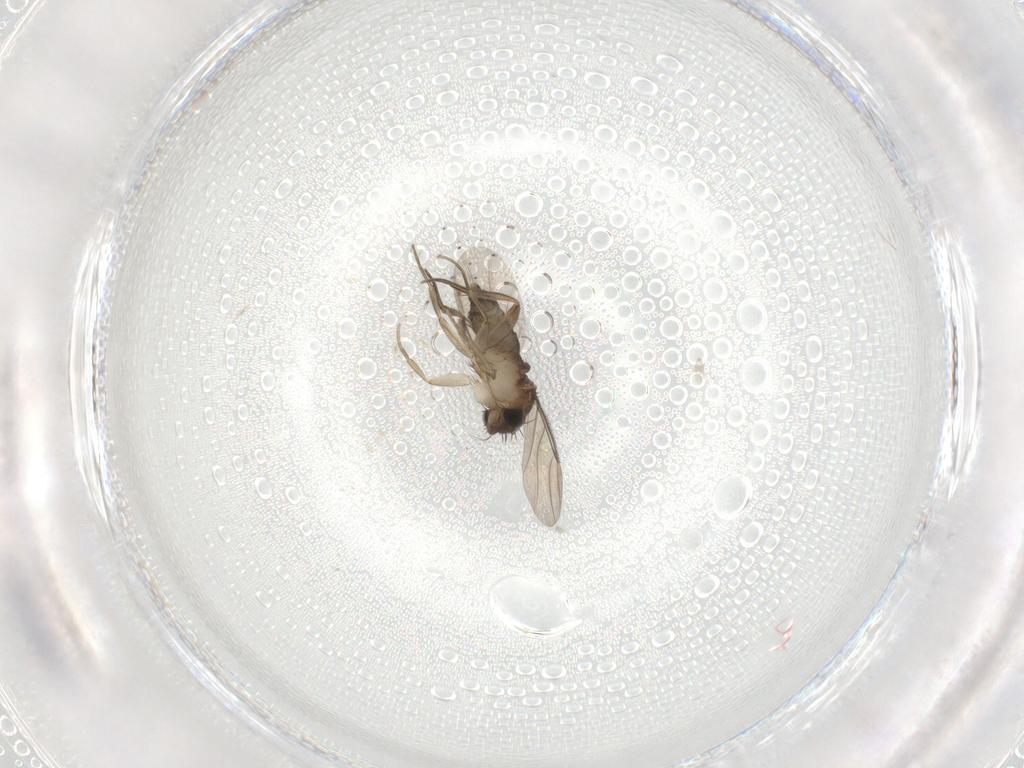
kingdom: Animalia
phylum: Arthropoda
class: Insecta
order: Diptera
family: Phoridae
